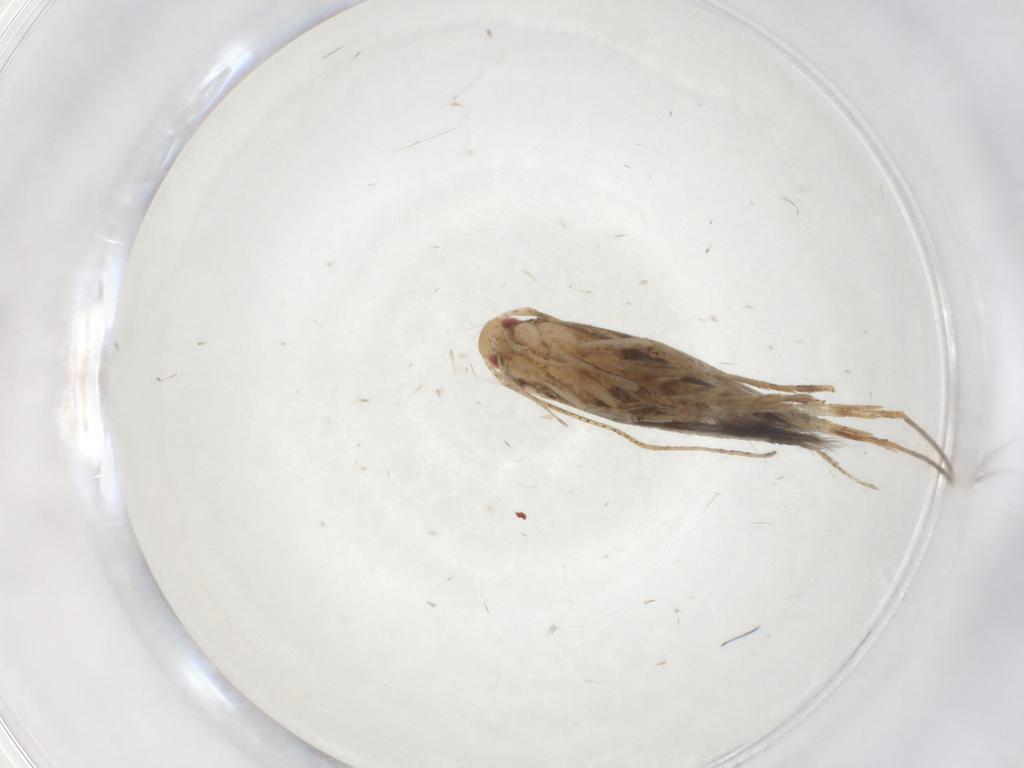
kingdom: Animalia
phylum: Arthropoda
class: Insecta
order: Lepidoptera
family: Cosmopterigidae
